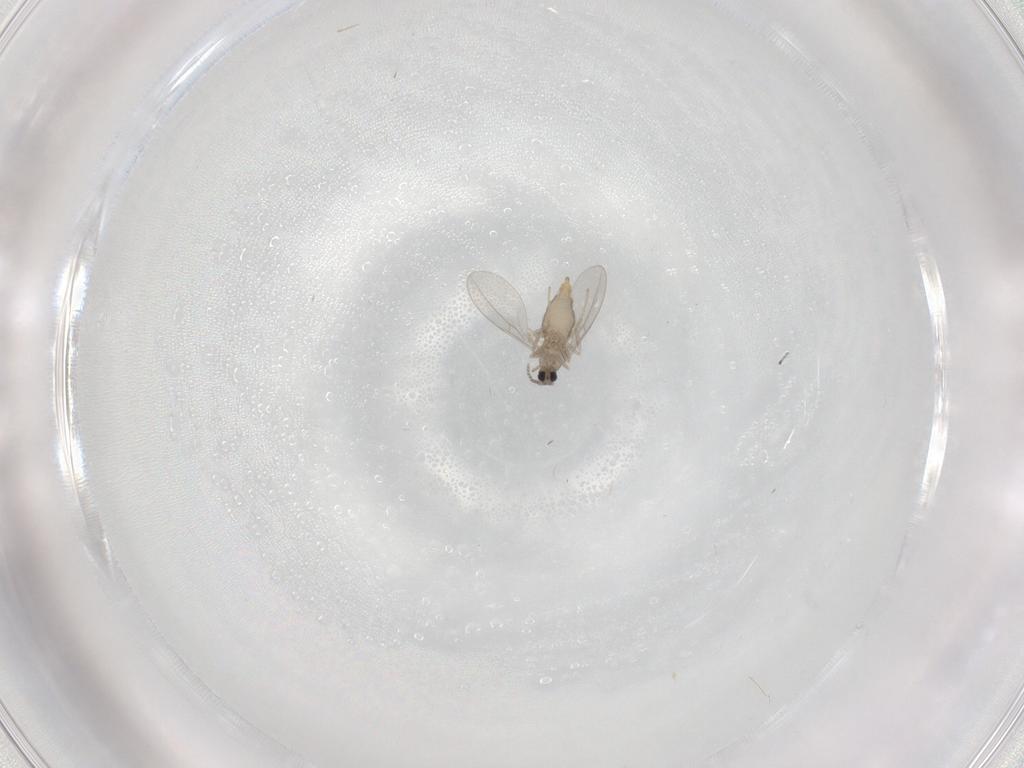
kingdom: Animalia
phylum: Arthropoda
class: Insecta
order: Diptera
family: Cecidomyiidae
